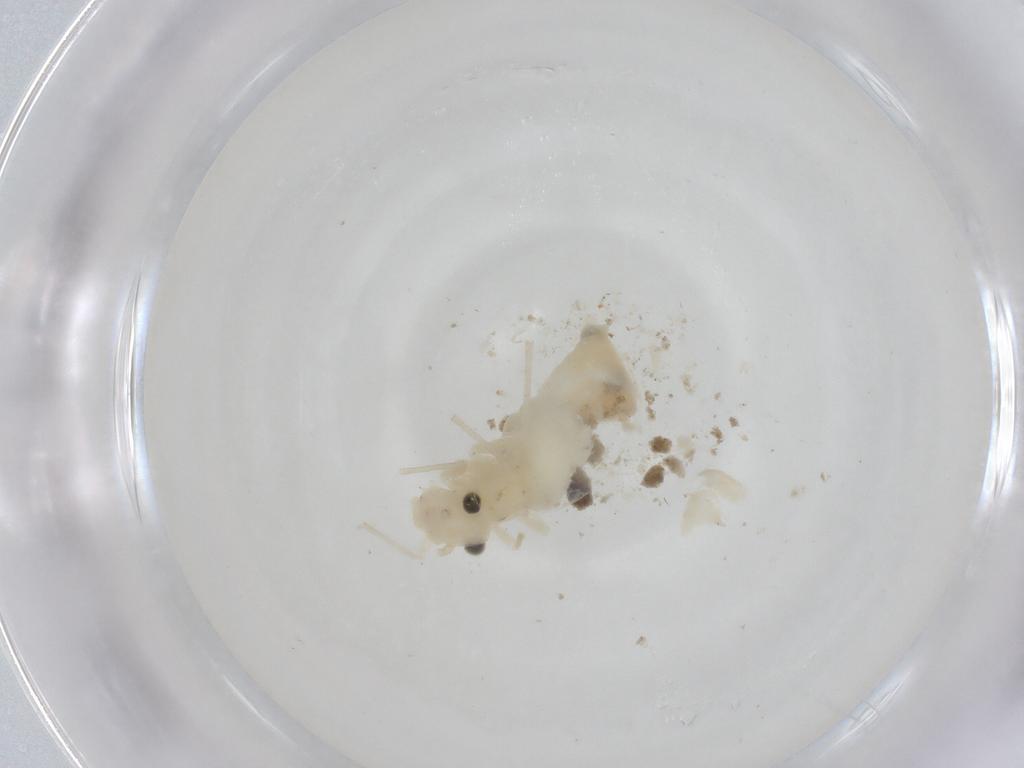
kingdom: Animalia
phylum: Arthropoda
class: Insecta
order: Psocodea
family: Caeciliusidae
